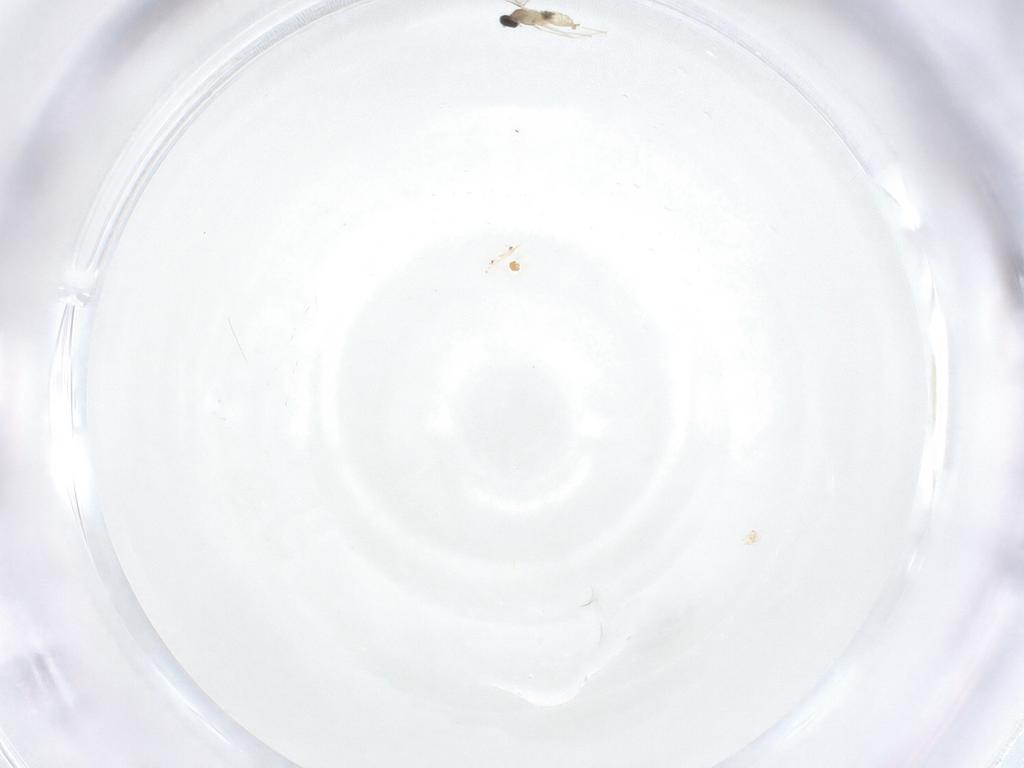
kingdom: Animalia
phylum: Arthropoda
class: Insecta
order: Diptera
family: Cecidomyiidae
